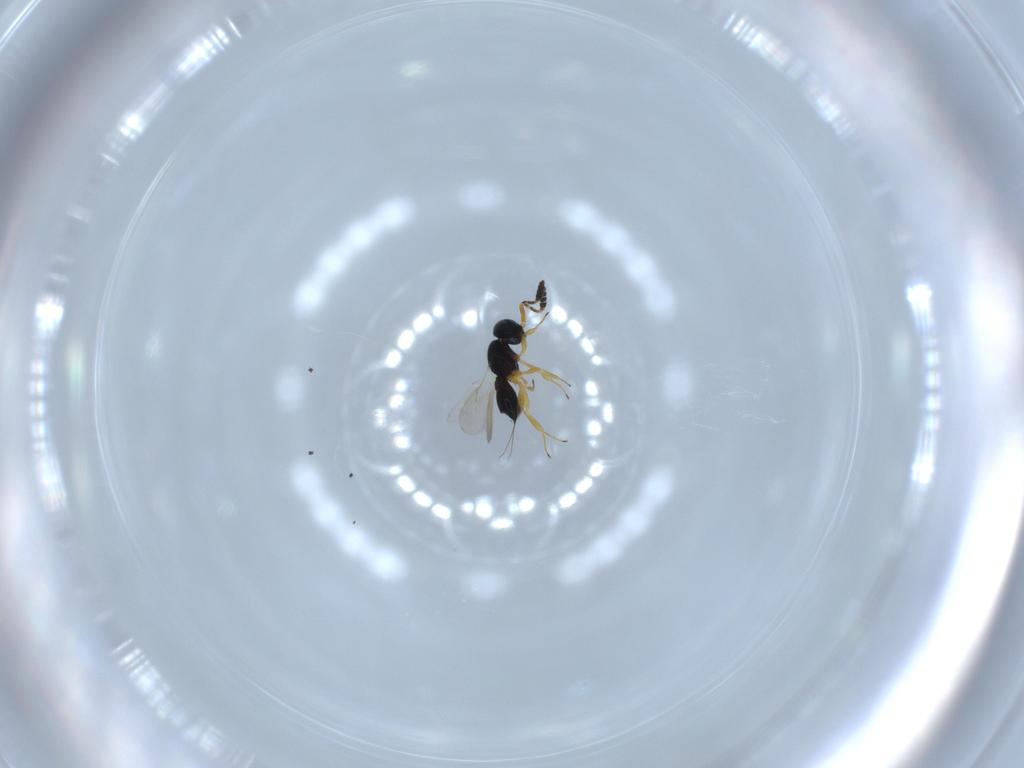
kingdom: Animalia
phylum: Arthropoda
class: Insecta
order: Hymenoptera
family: Scelionidae
